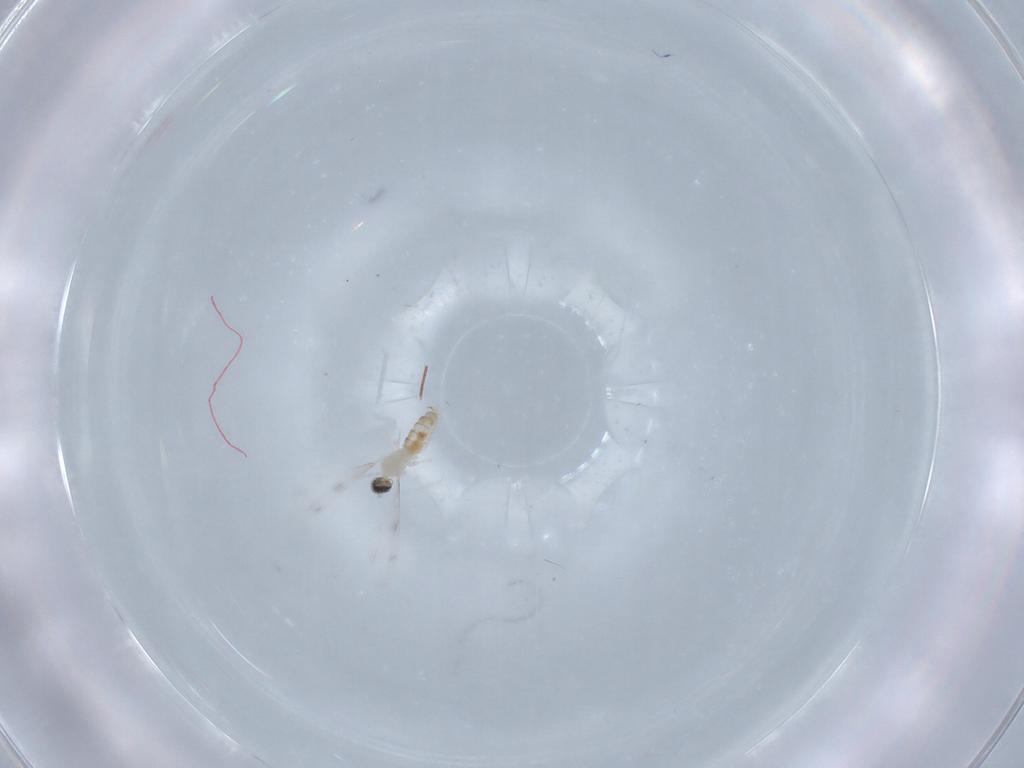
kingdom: Animalia
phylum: Arthropoda
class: Insecta
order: Diptera
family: Cecidomyiidae
